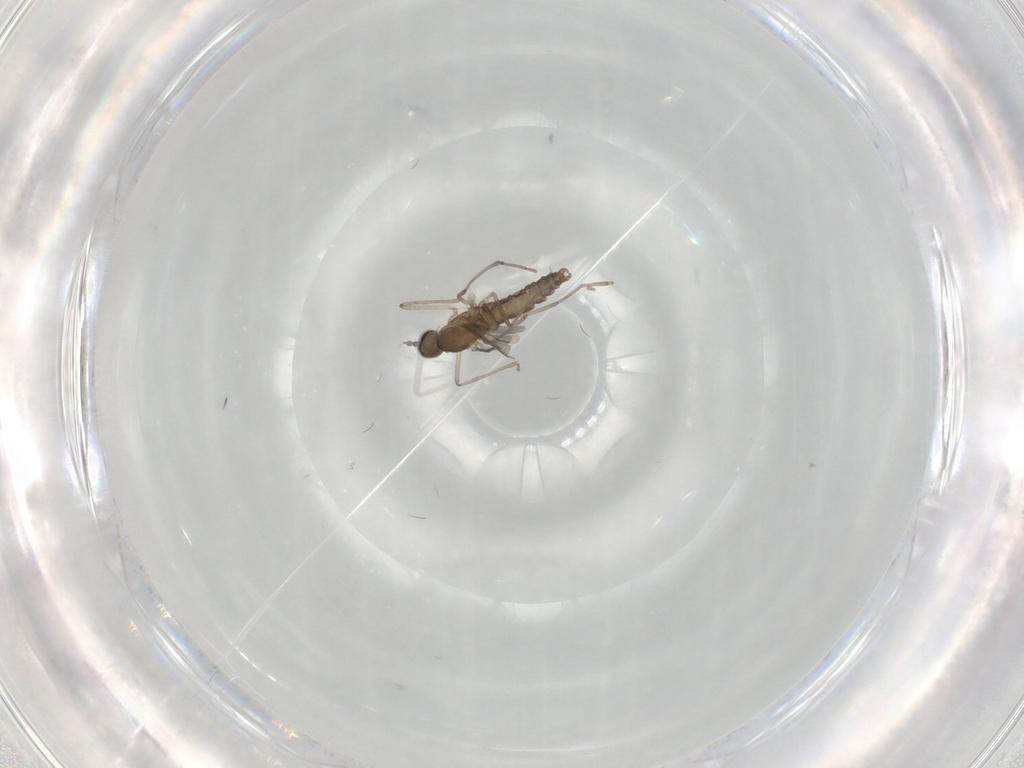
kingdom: Animalia
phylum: Arthropoda
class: Insecta
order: Diptera
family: Cecidomyiidae
